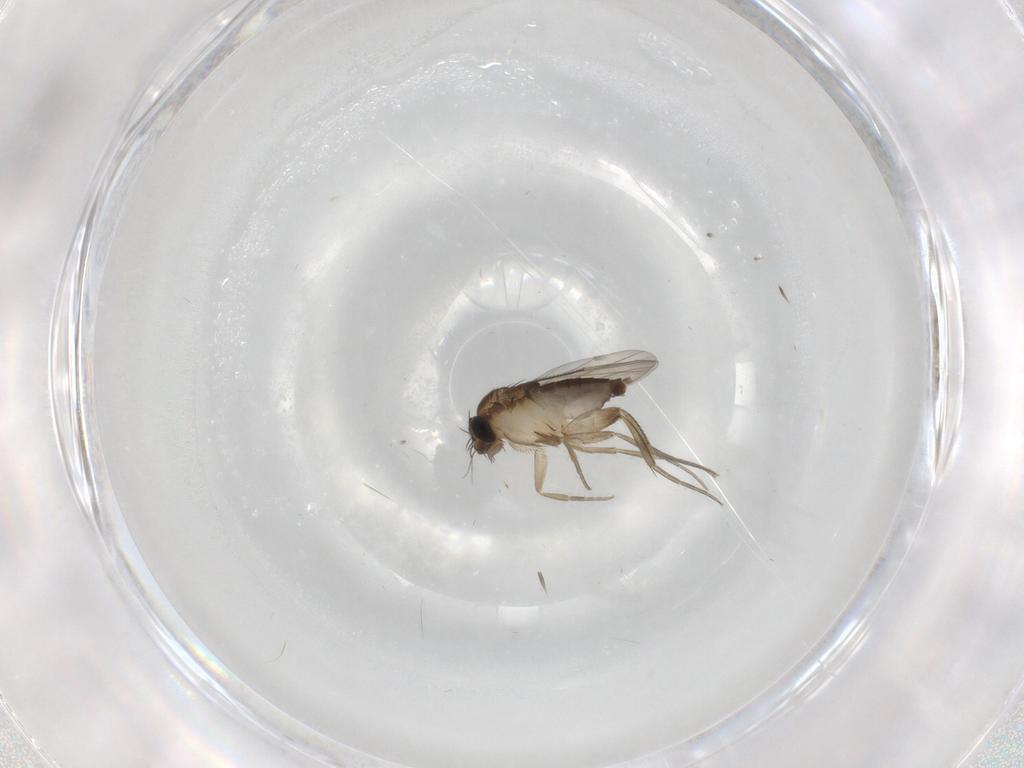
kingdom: Animalia
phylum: Arthropoda
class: Insecta
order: Diptera
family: Phoridae
